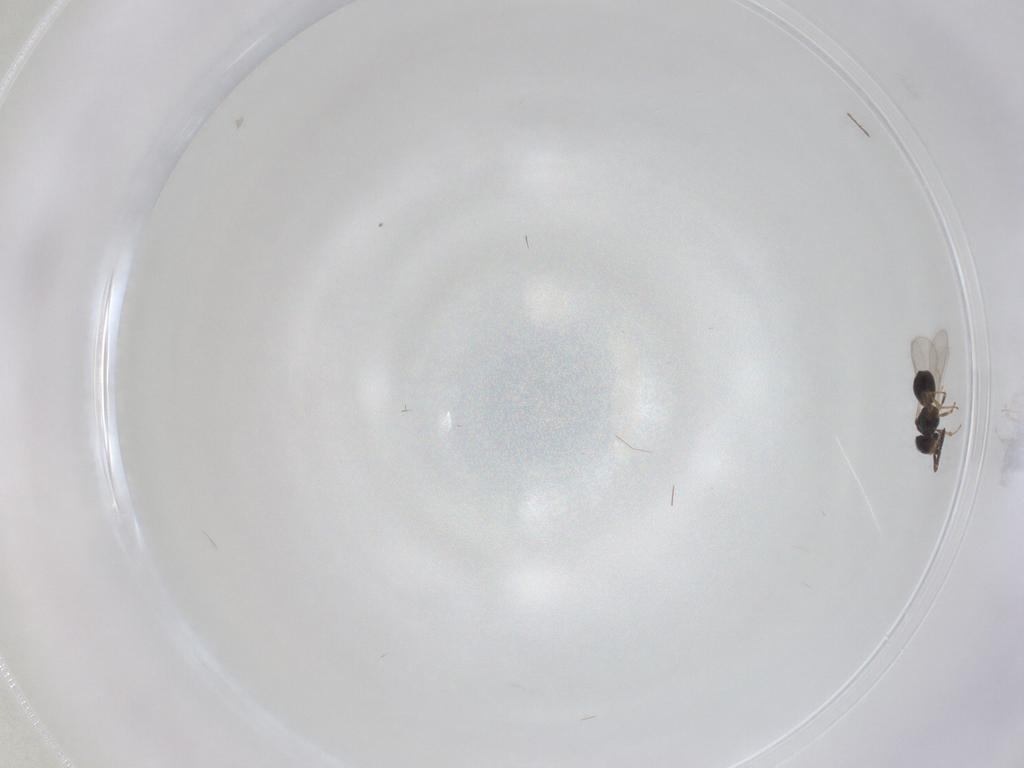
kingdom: Animalia
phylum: Arthropoda
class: Insecta
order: Hymenoptera
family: Scelionidae
